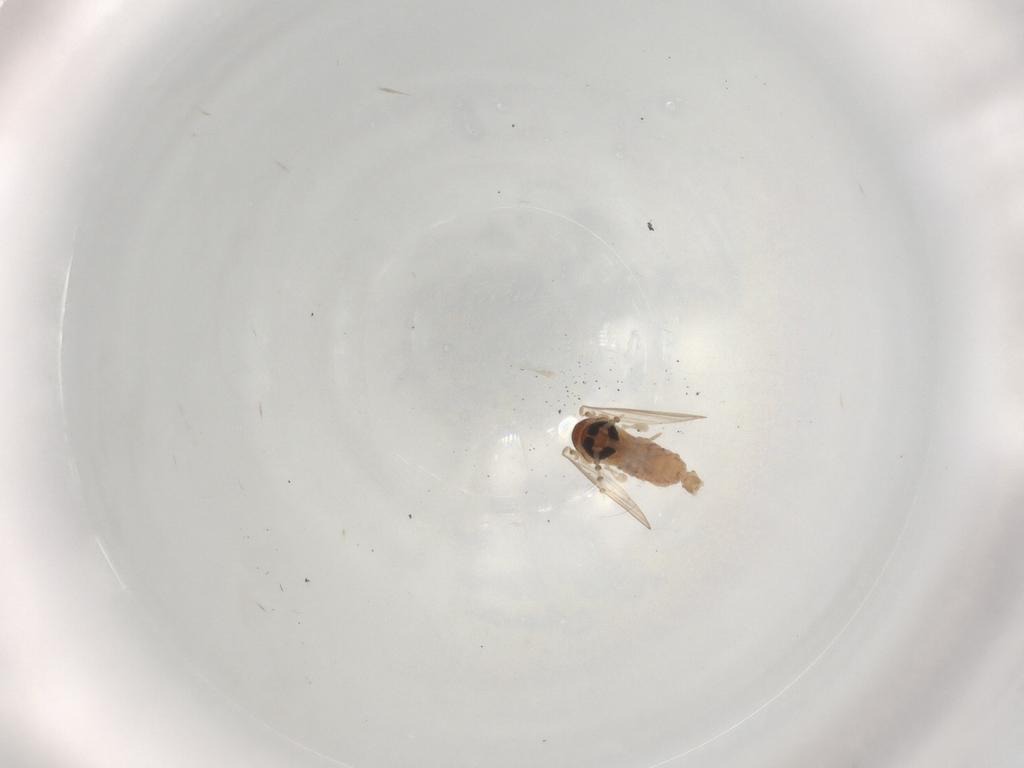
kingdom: Animalia
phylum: Arthropoda
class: Insecta
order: Diptera
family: Psychodidae
